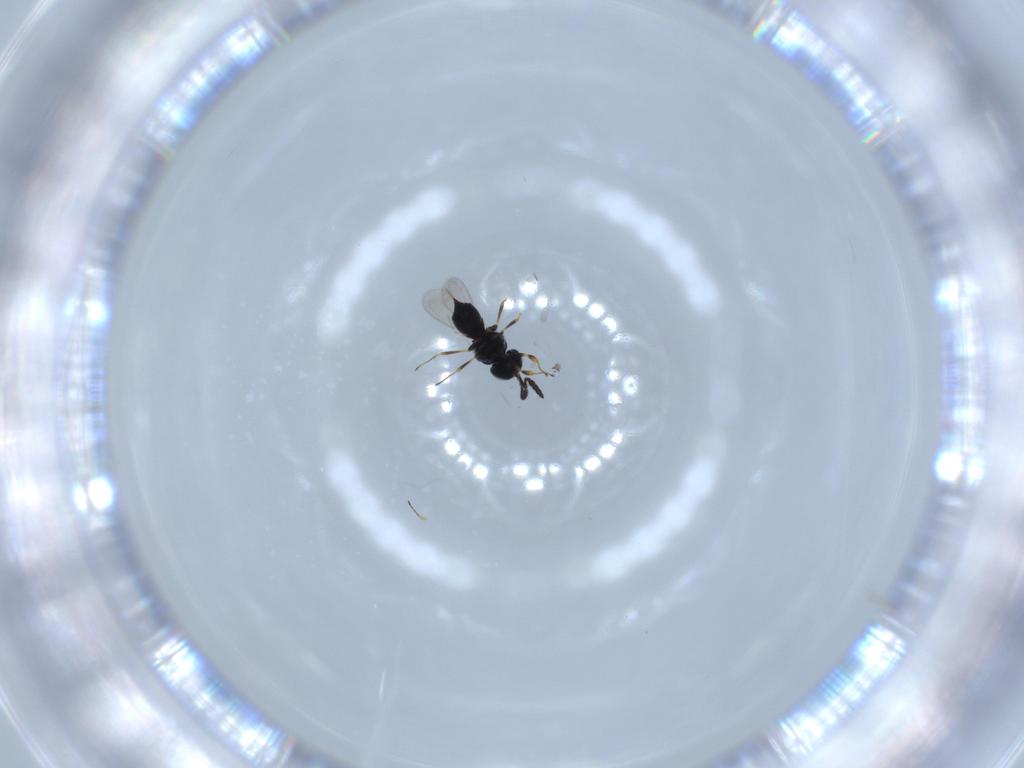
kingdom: Animalia
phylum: Arthropoda
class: Insecta
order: Hymenoptera
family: Scelionidae
